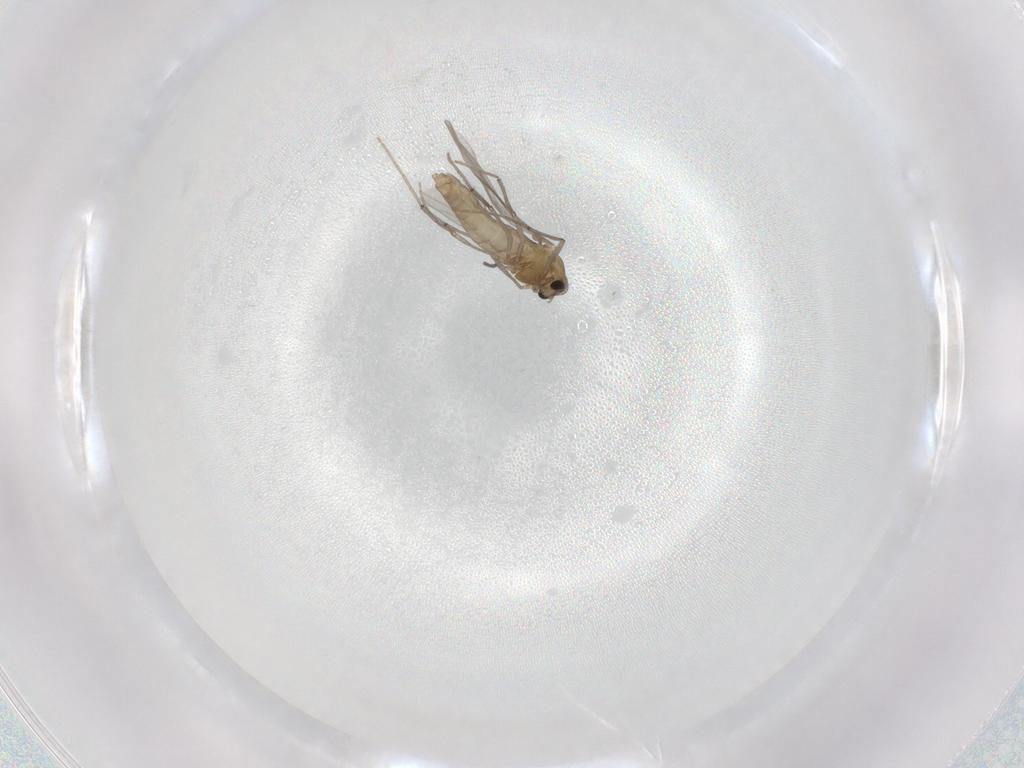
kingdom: Animalia
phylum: Arthropoda
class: Insecta
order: Diptera
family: Chironomidae
